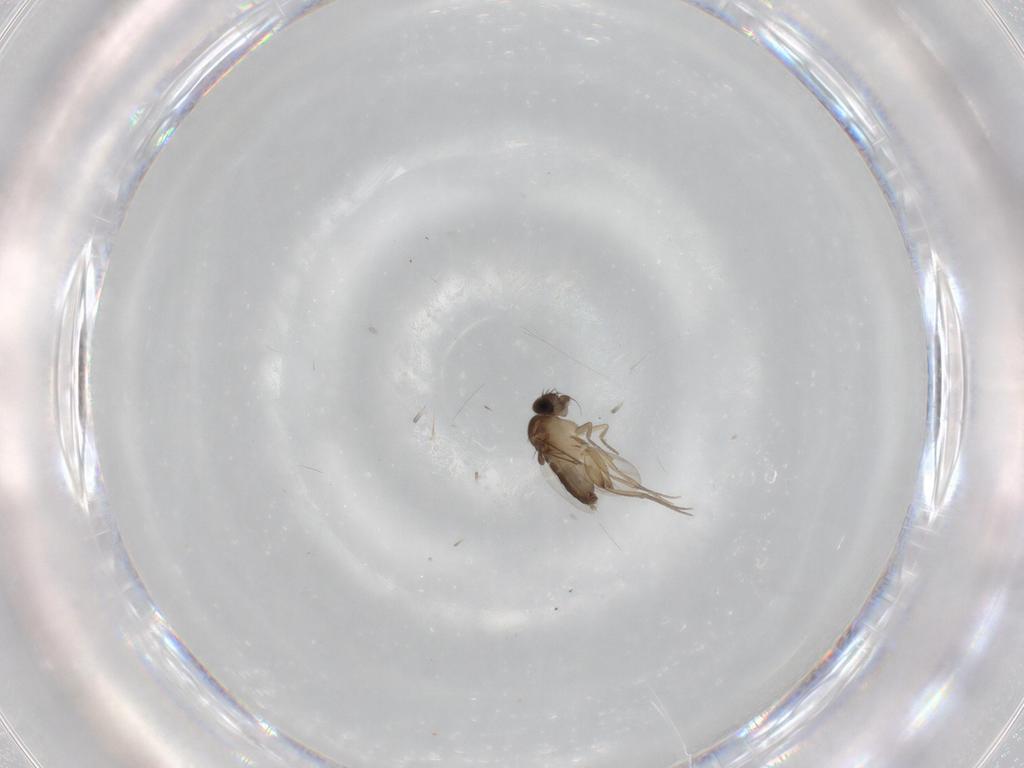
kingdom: Animalia
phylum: Arthropoda
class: Insecta
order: Diptera
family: Phoridae
